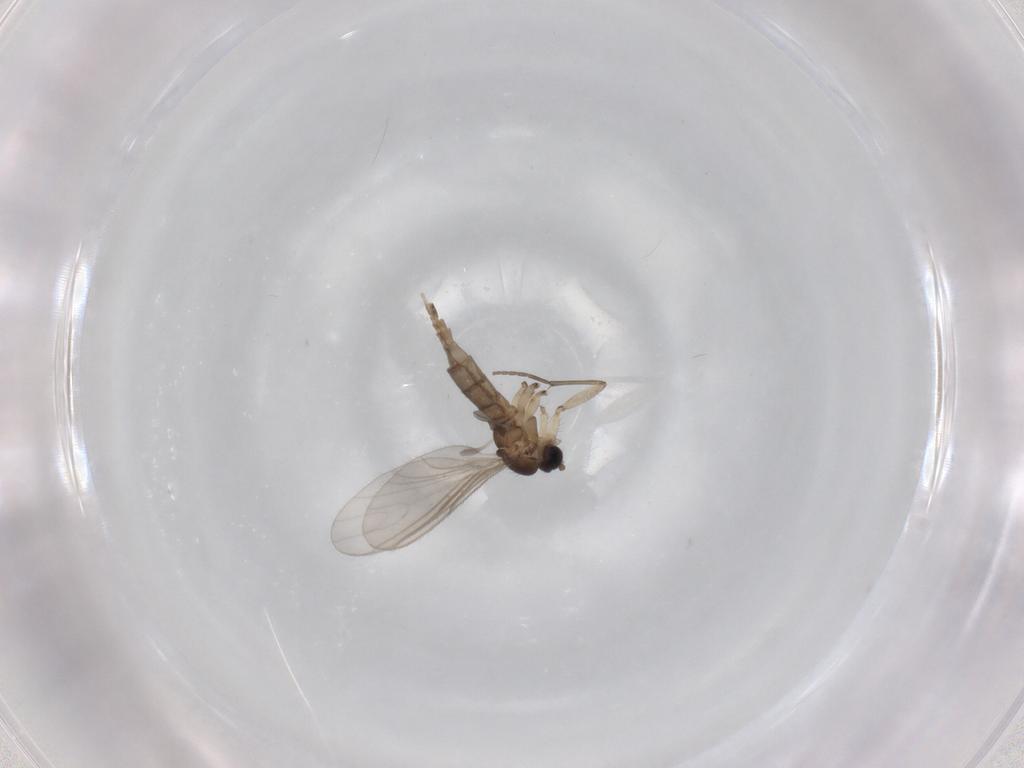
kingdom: Animalia
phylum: Arthropoda
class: Insecta
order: Diptera
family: Sciaridae
